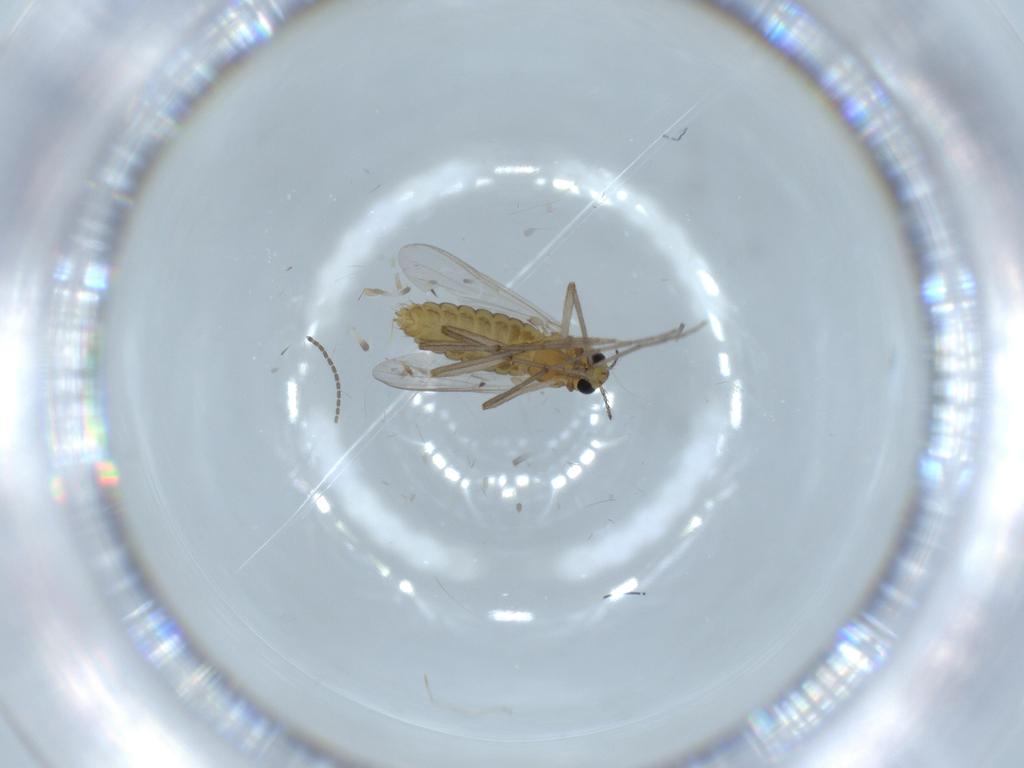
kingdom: Animalia
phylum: Arthropoda
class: Insecta
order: Diptera
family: Chironomidae
